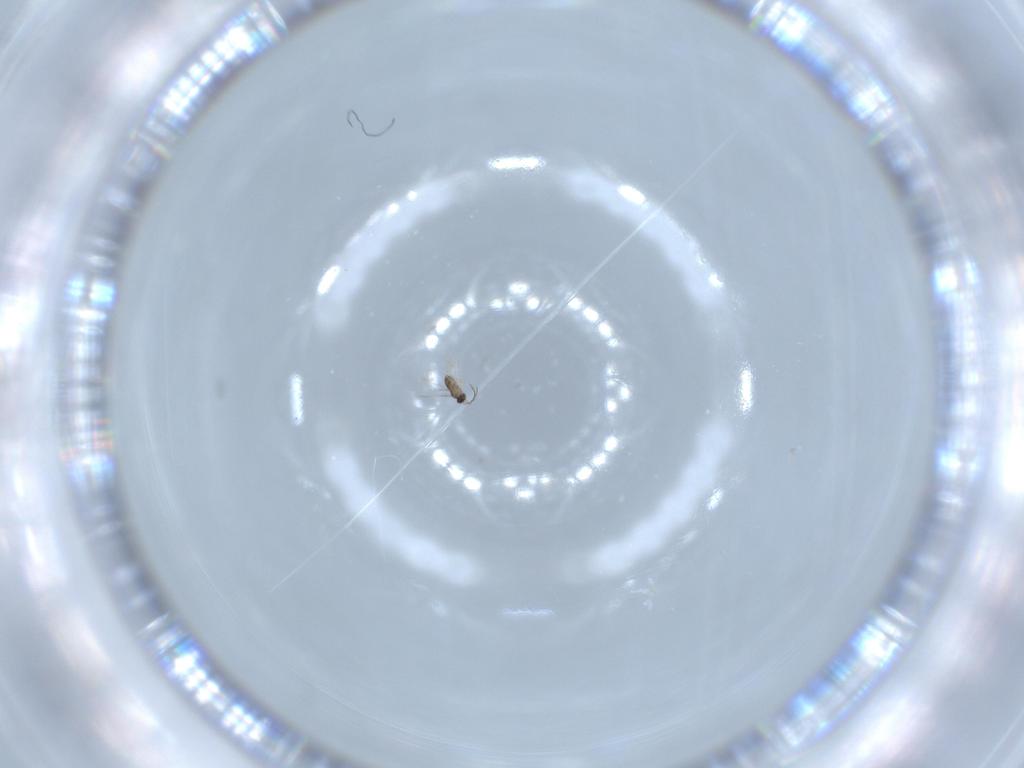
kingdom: Animalia
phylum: Arthropoda
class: Insecta
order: Hymenoptera
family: Mymaridae
